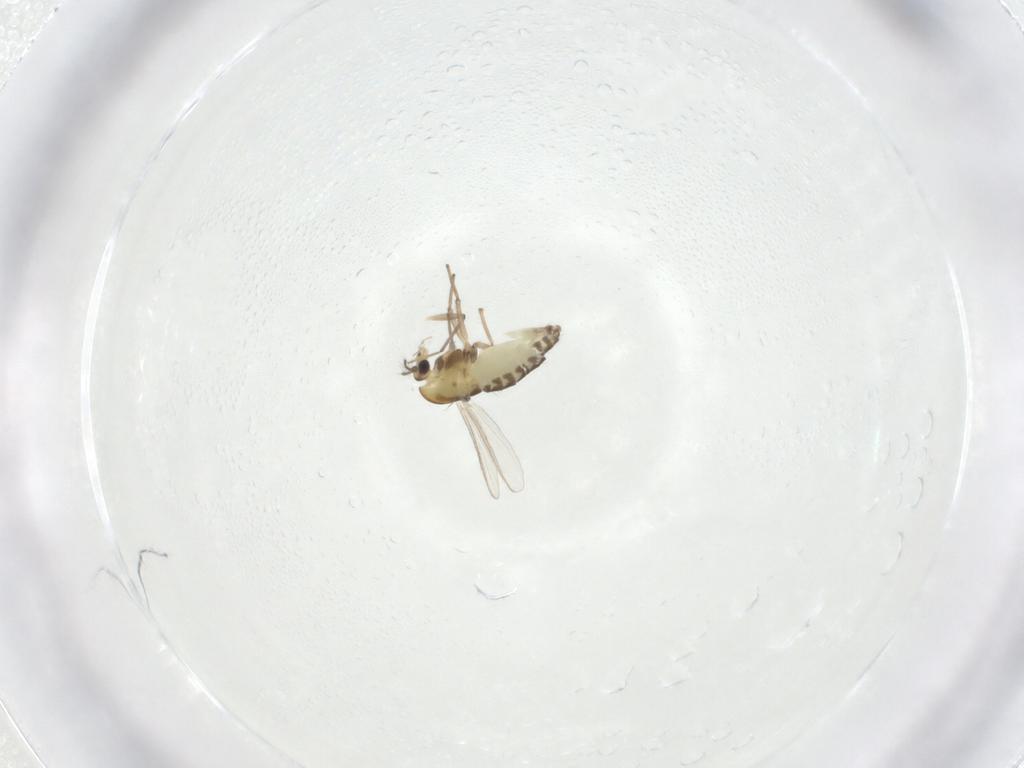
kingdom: Animalia
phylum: Arthropoda
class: Insecta
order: Diptera
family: Chironomidae
